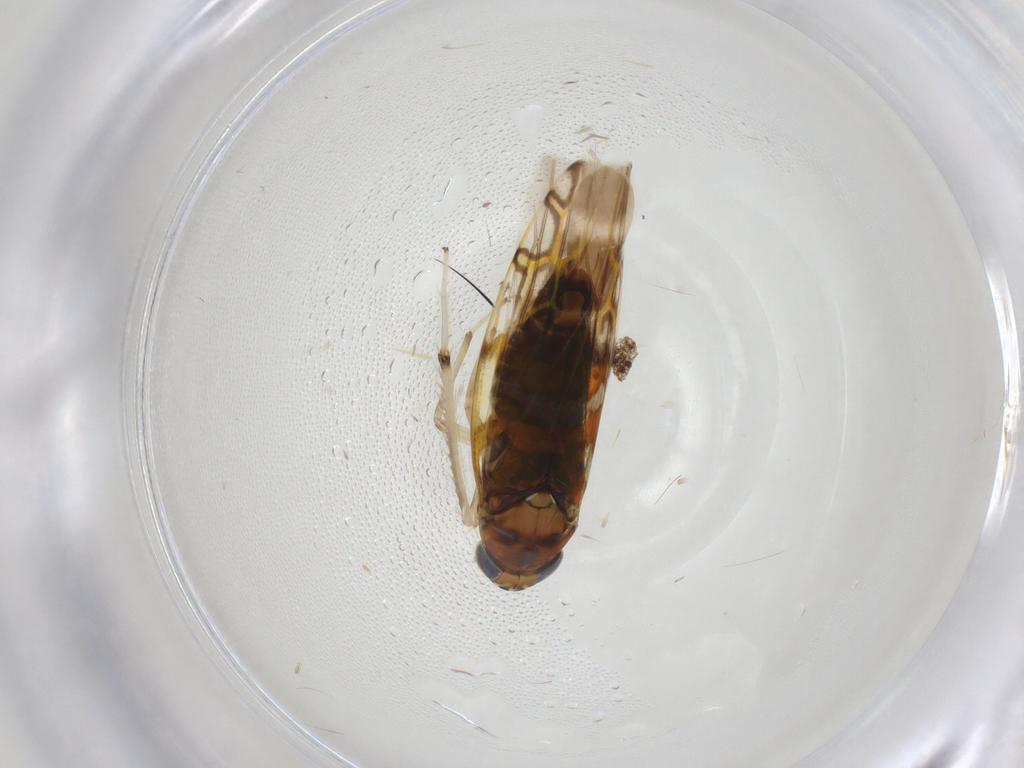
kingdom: Animalia
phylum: Arthropoda
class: Insecta
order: Hemiptera
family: Cicadellidae
